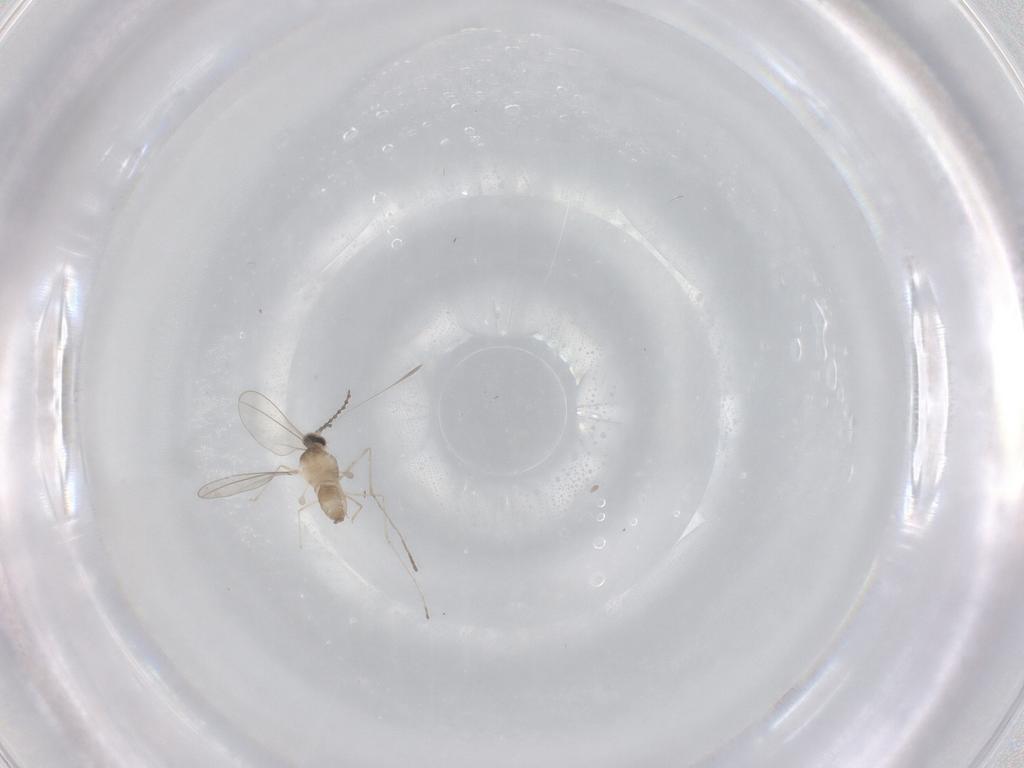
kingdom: Animalia
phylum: Arthropoda
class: Insecta
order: Diptera
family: Cecidomyiidae
